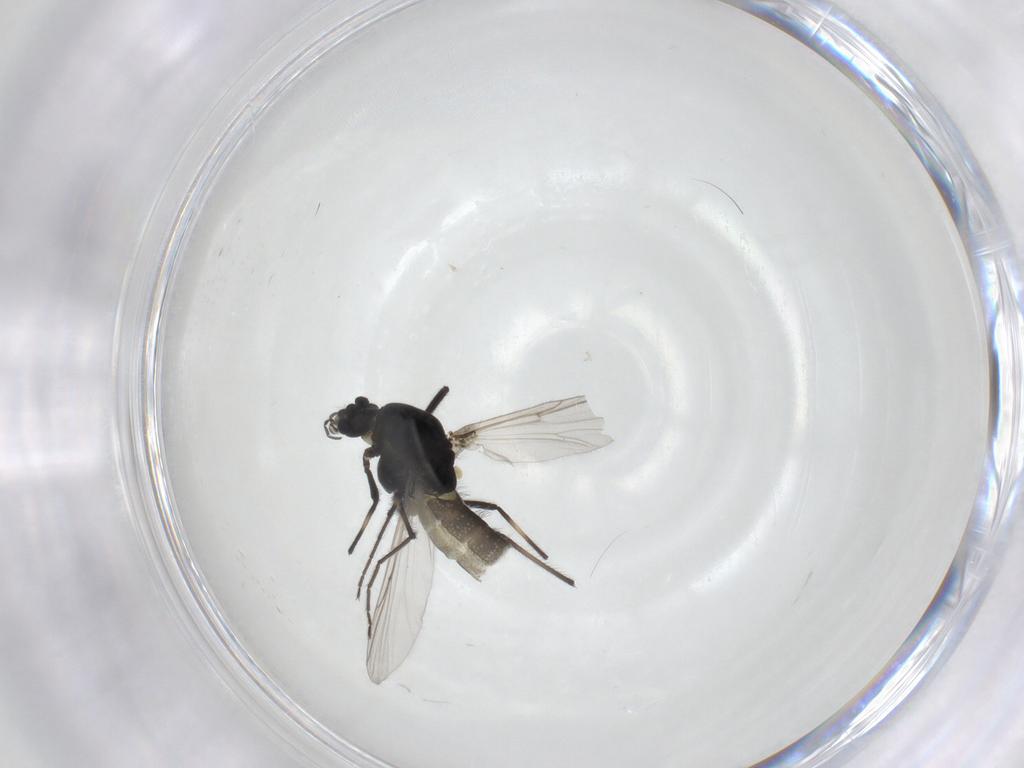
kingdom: Animalia
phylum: Arthropoda
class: Insecta
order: Diptera
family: Chironomidae
